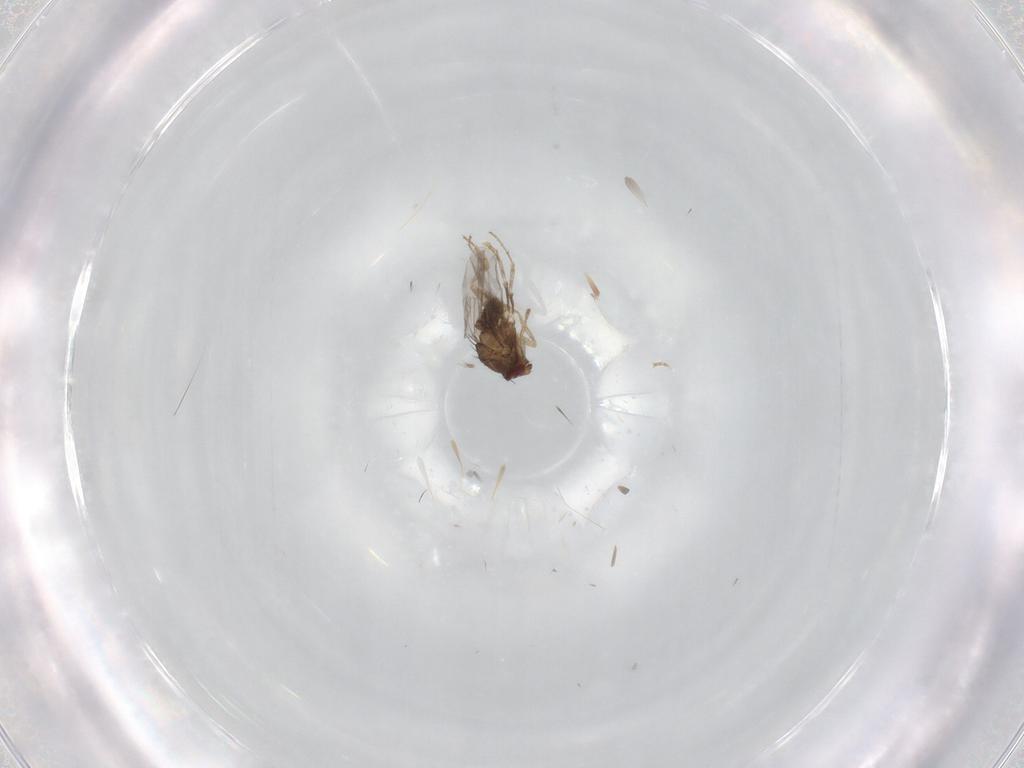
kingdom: Animalia
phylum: Arthropoda
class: Insecta
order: Diptera
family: Sphaeroceridae
